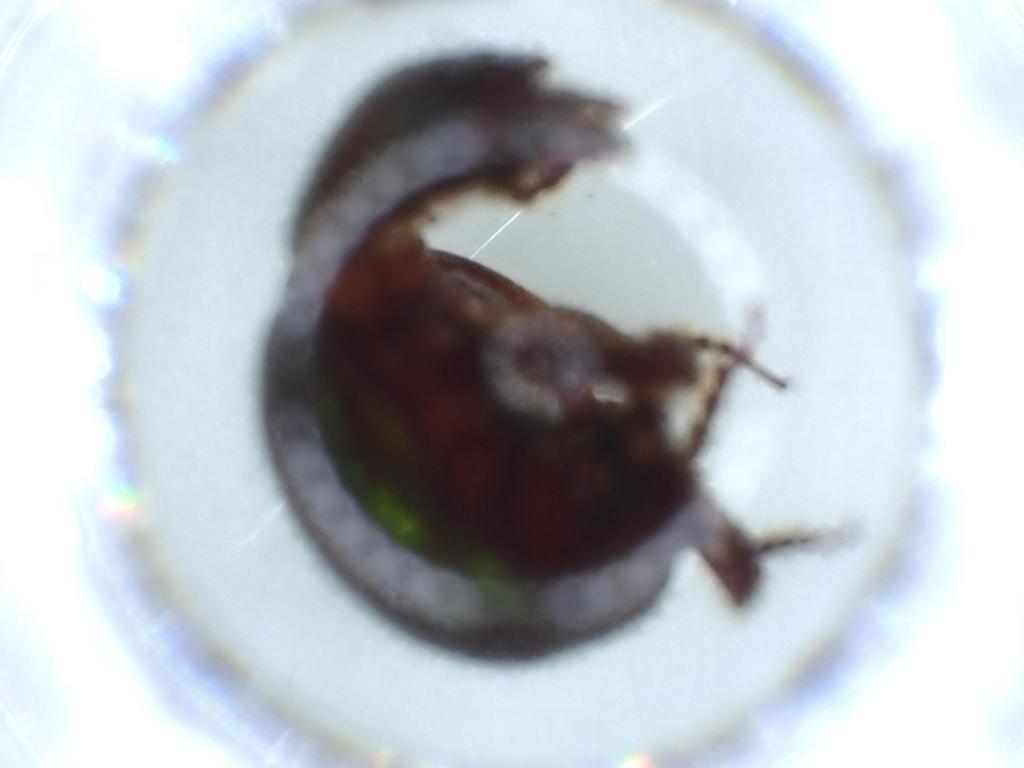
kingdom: Animalia
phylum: Arthropoda
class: Insecta
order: Coleoptera
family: Hybosoridae
